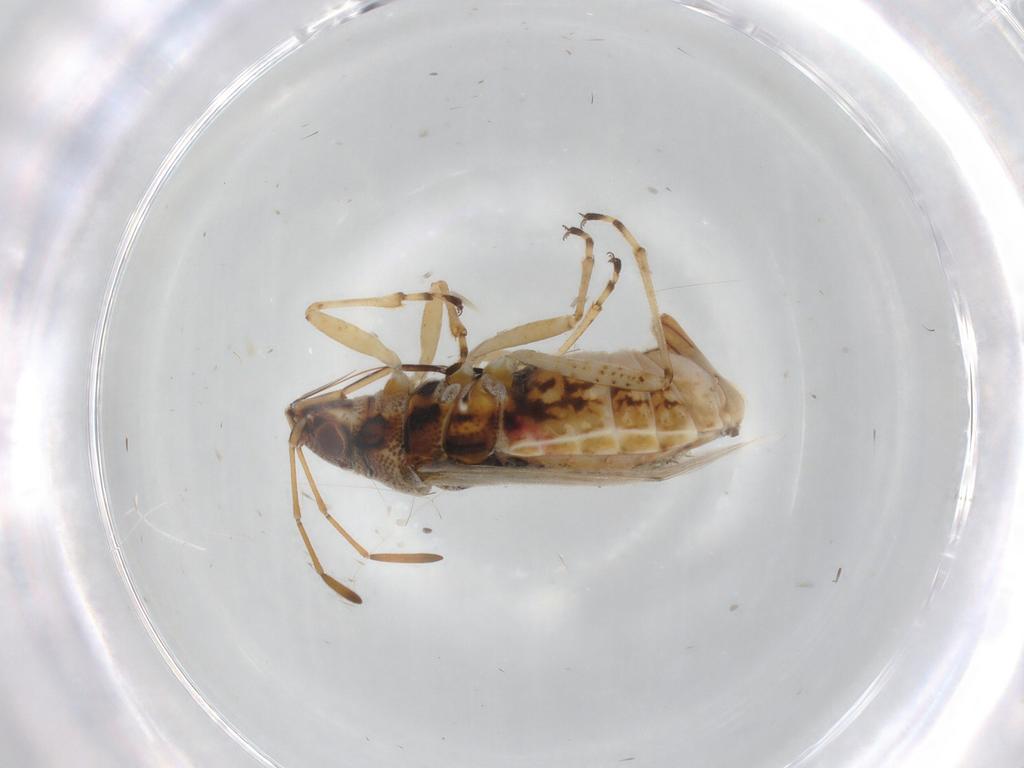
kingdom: Animalia
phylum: Arthropoda
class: Insecta
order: Hemiptera
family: Lygaeidae
